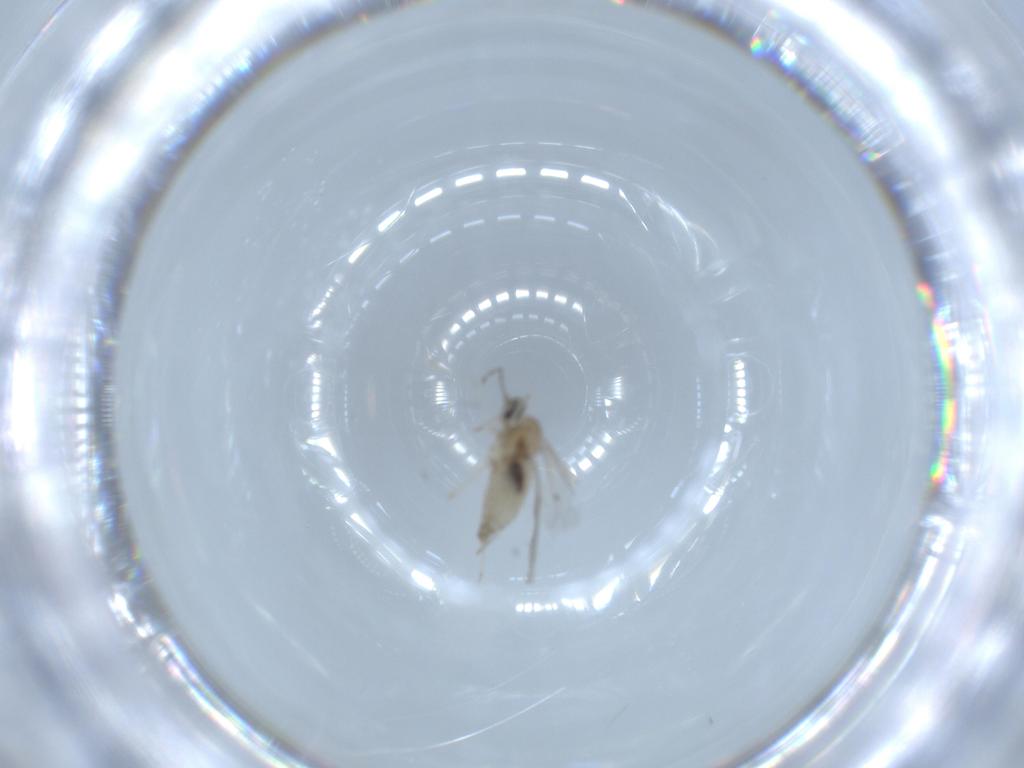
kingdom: Animalia
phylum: Arthropoda
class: Insecta
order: Diptera
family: Cecidomyiidae
